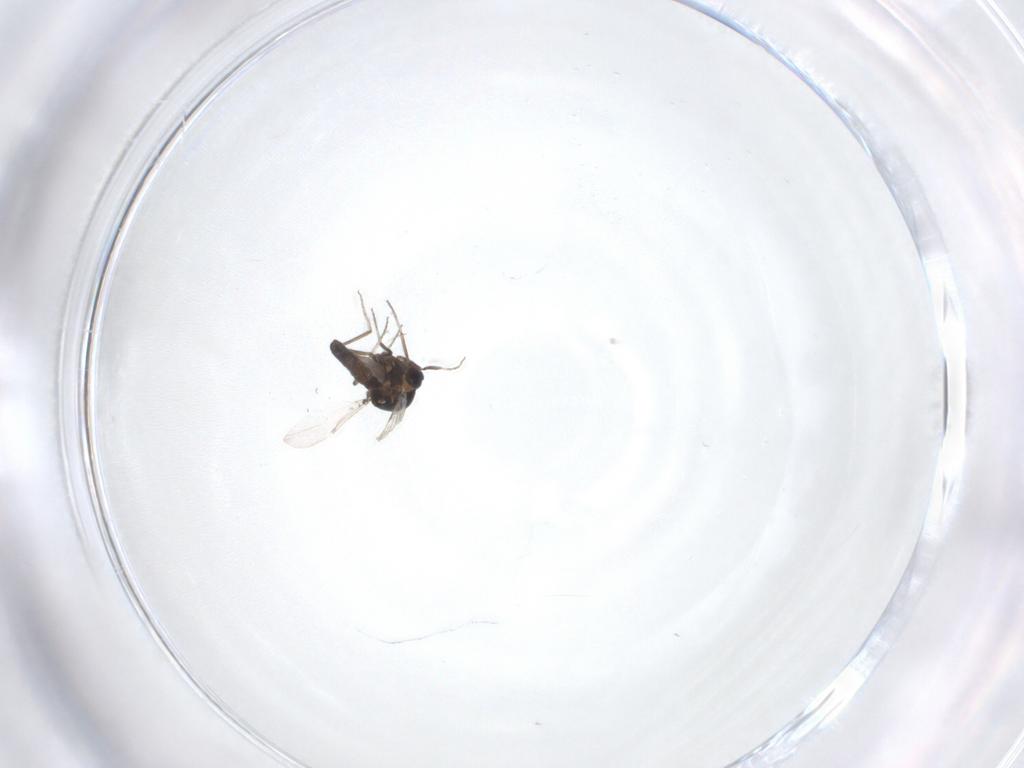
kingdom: Animalia
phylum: Arthropoda
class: Insecta
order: Diptera
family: Ceratopogonidae
